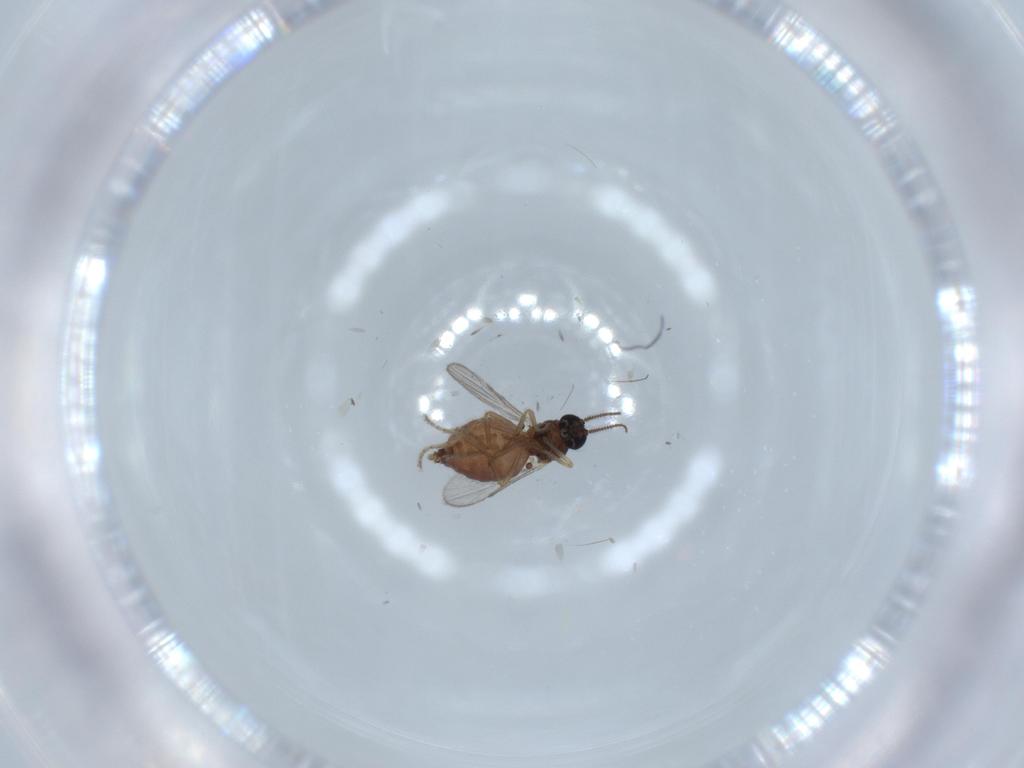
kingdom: Animalia
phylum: Arthropoda
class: Insecta
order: Diptera
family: Ceratopogonidae
